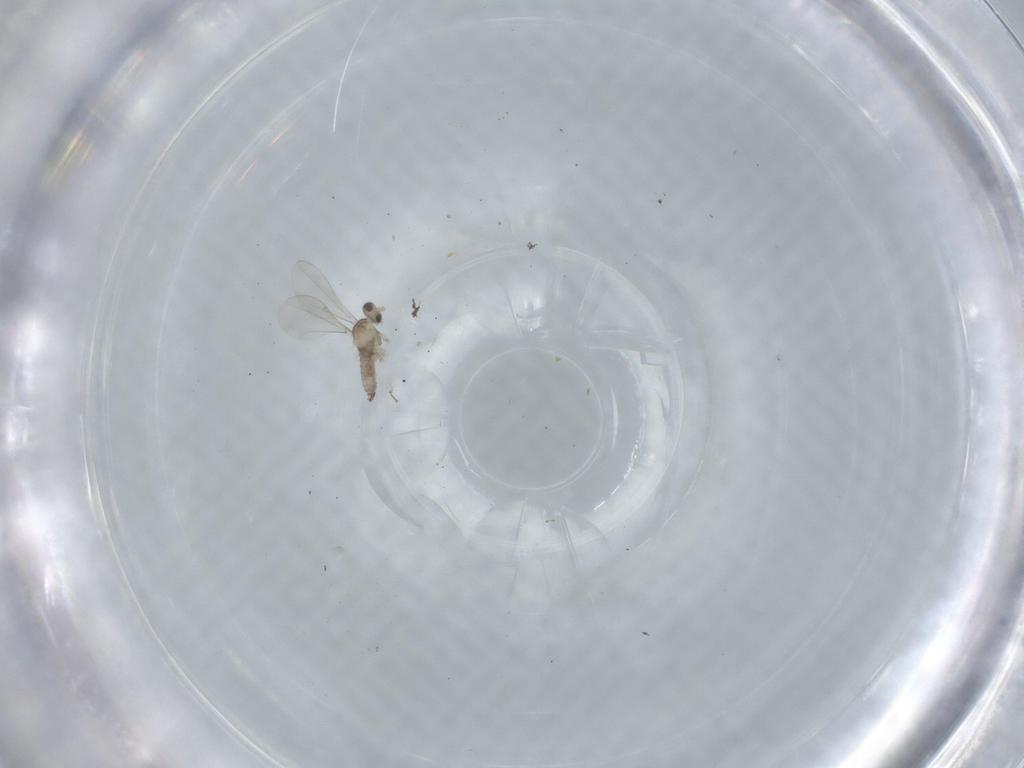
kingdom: Animalia
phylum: Arthropoda
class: Insecta
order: Diptera
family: Cecidomyiidae
